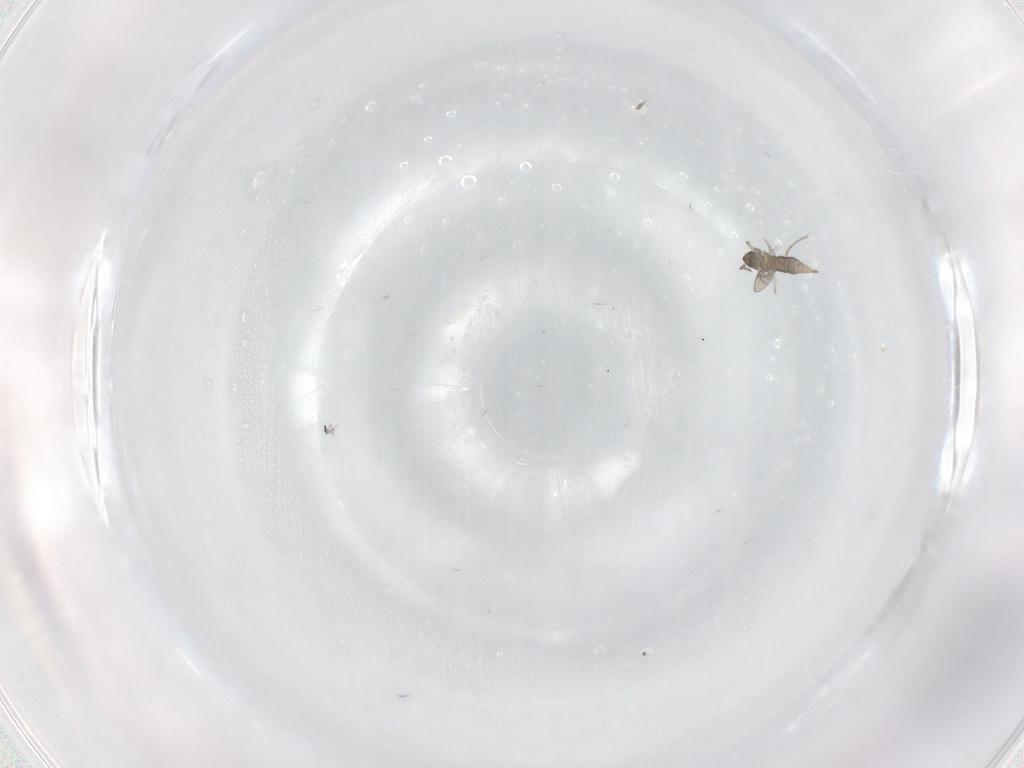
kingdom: Animalia
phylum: Arthropoda
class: Insecta
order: Diptera
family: Cecidomyiidae
